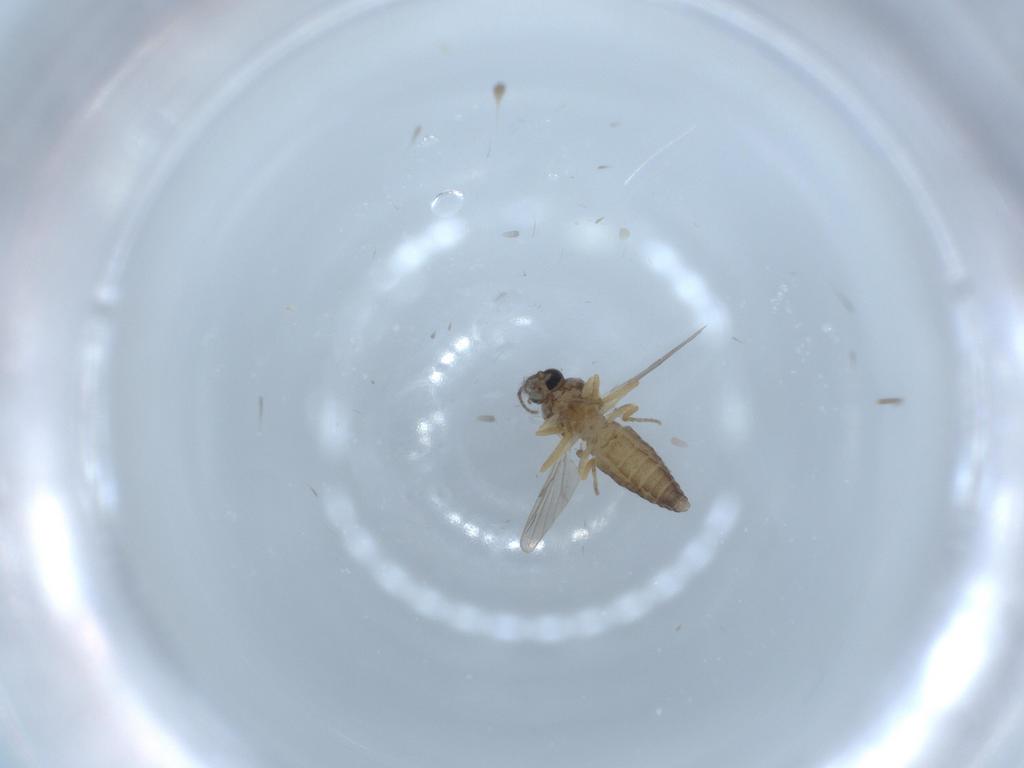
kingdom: Animalia
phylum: Arthropoda
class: Insecta
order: Diptera
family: Ceratopogonidae
